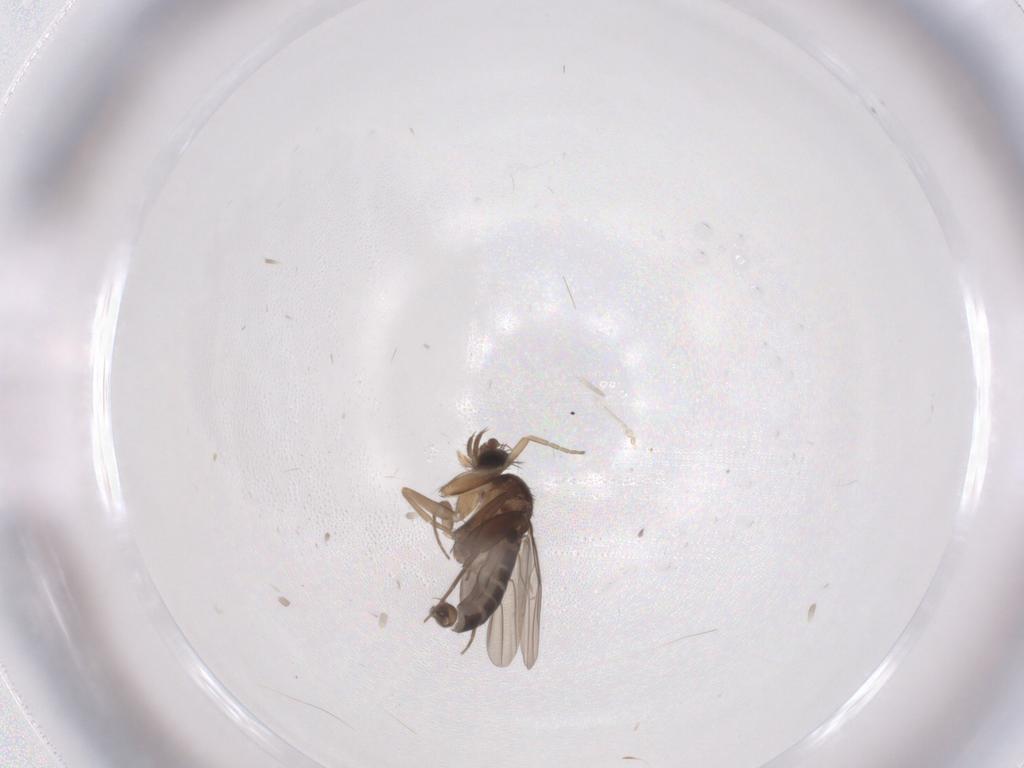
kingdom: Animalia
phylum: Arthropoda
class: Insecta
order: Diptera
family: Phoridae
